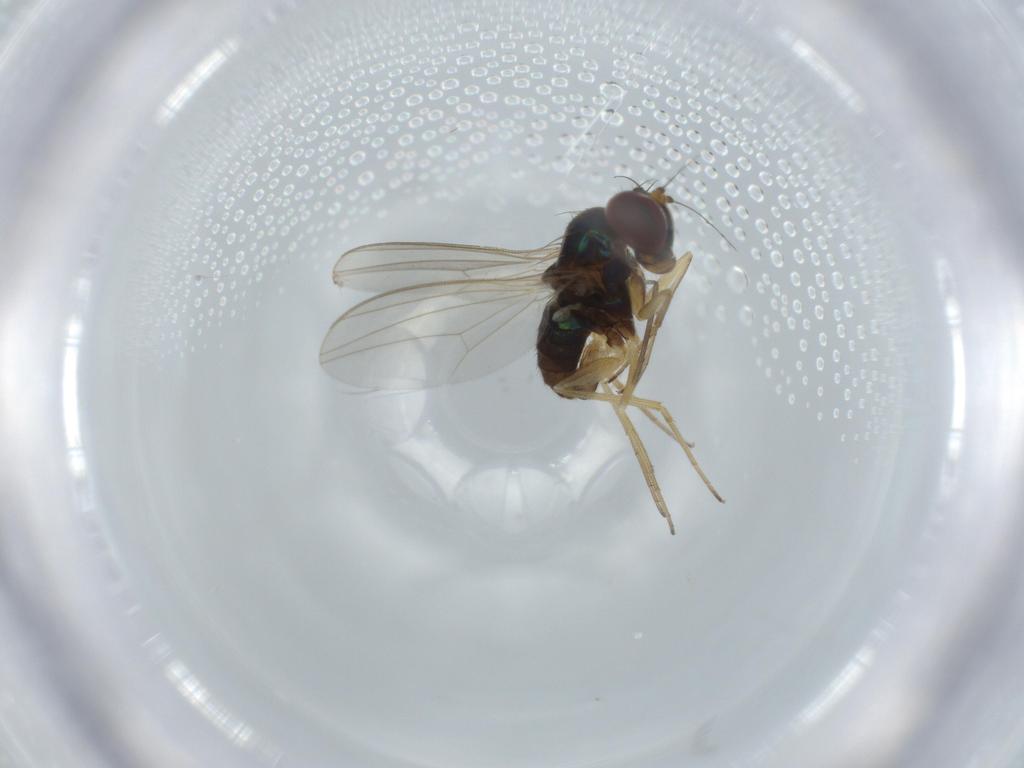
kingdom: Animalia
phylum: Arthropoda
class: Insecta
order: Diptera
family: Dolichopodidae
